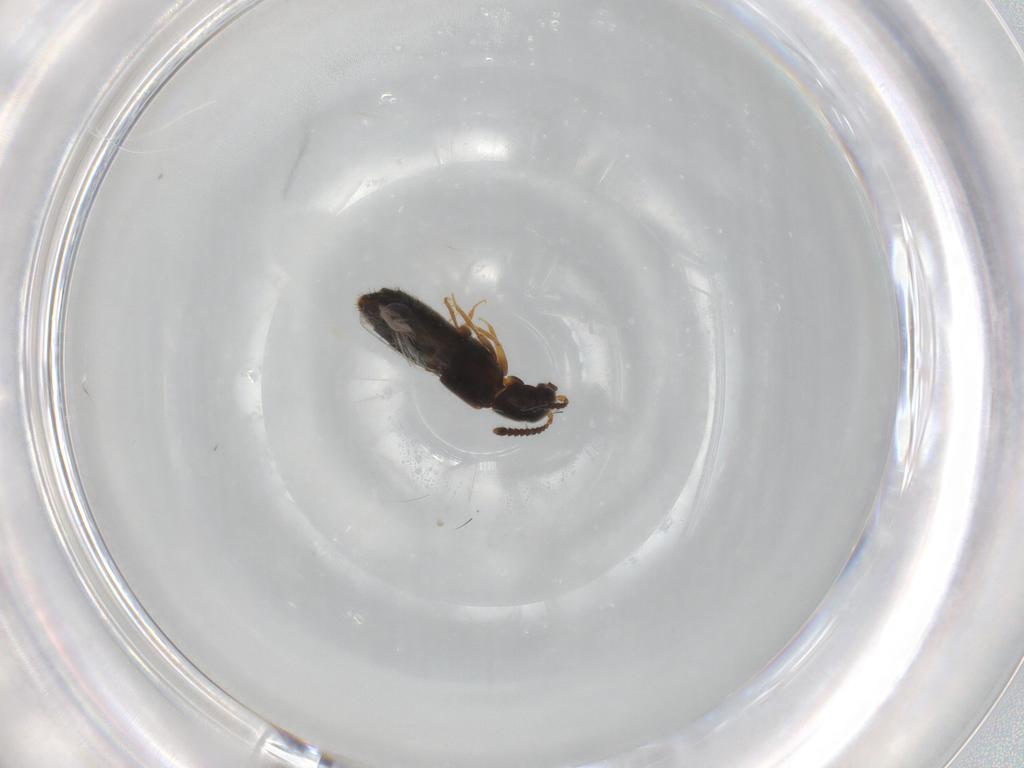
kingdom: Animalia
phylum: Arthropoda
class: Insecta
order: Coleoptera
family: Staphylinidae
